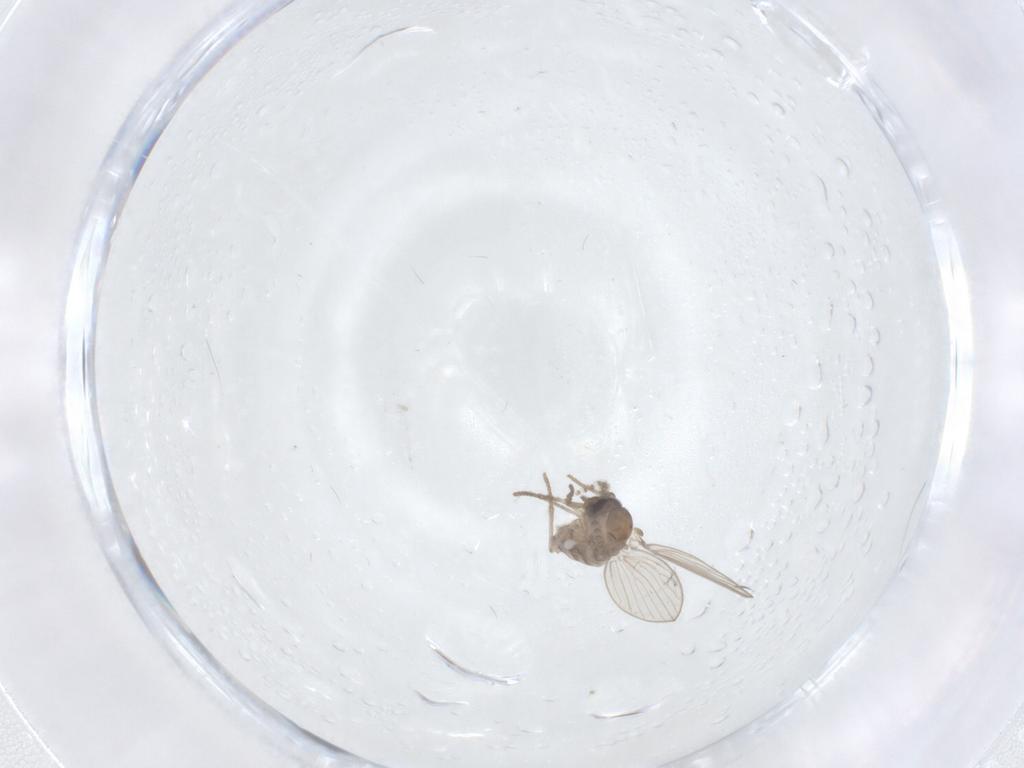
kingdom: Animalia
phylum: Arthropoda
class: Insecta
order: Diptera
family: Psychodidae
